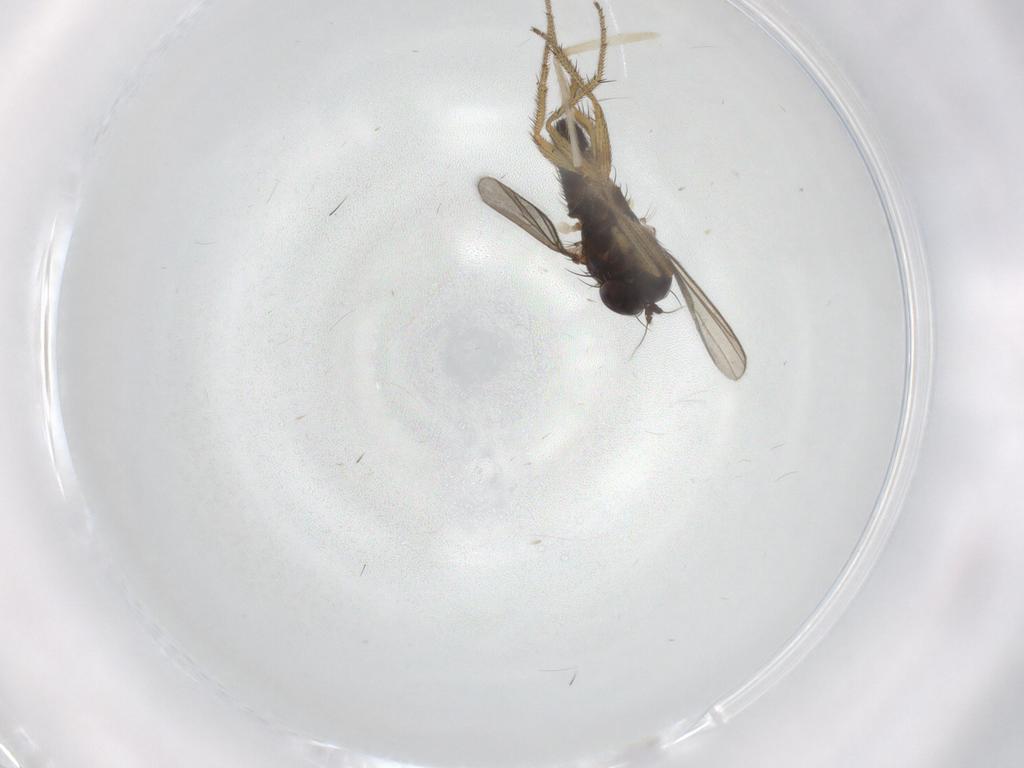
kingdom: Animalia
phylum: Arthropoda
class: Insecta
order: Diptera
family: Chironomidae
